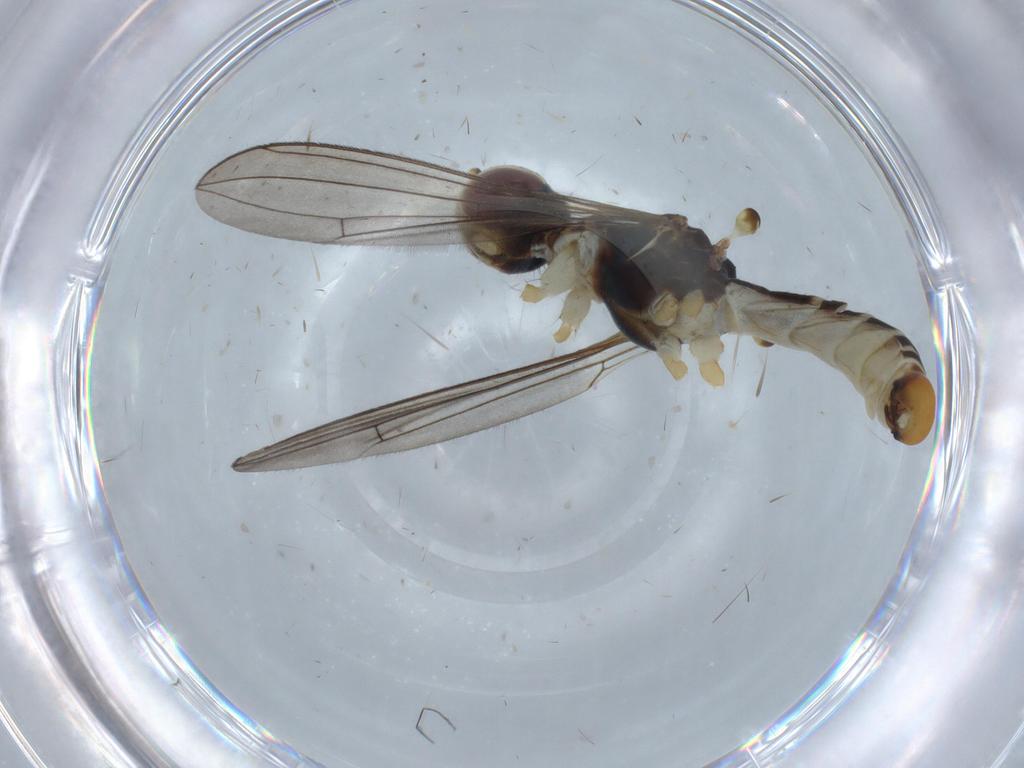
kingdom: Animalia
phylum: Arthropoda
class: Insecta
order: Diptera
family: Micropezidae
